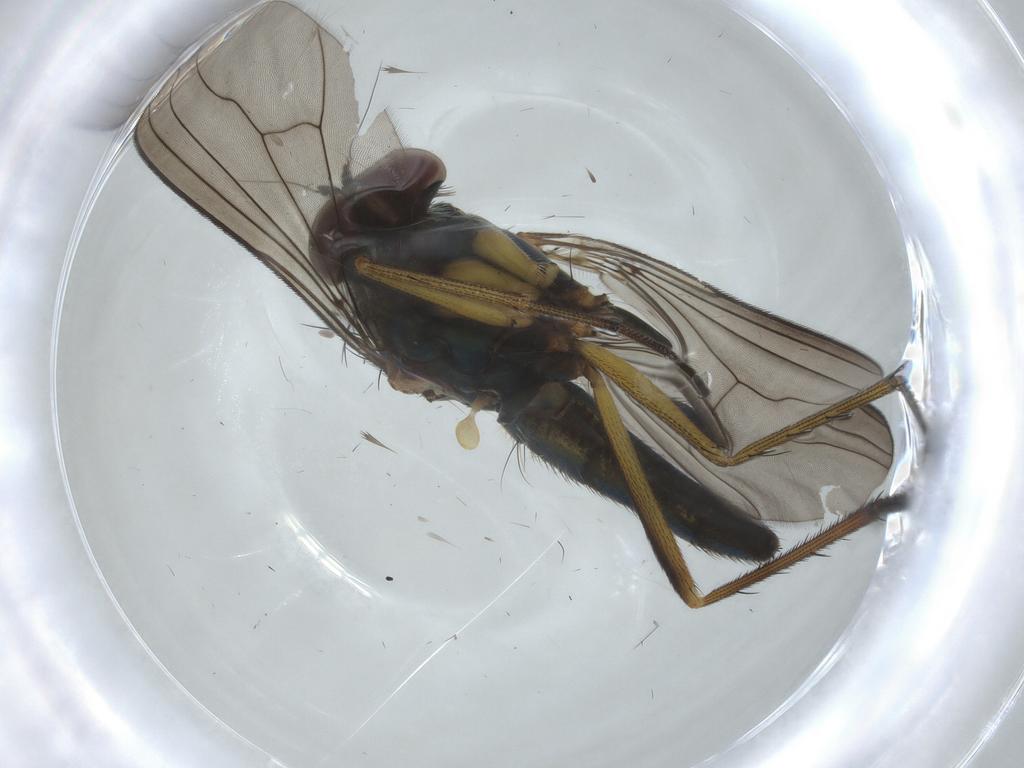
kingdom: Animalia
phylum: Arthropoda
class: Insecta
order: Diptera
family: Dolichopodidae
